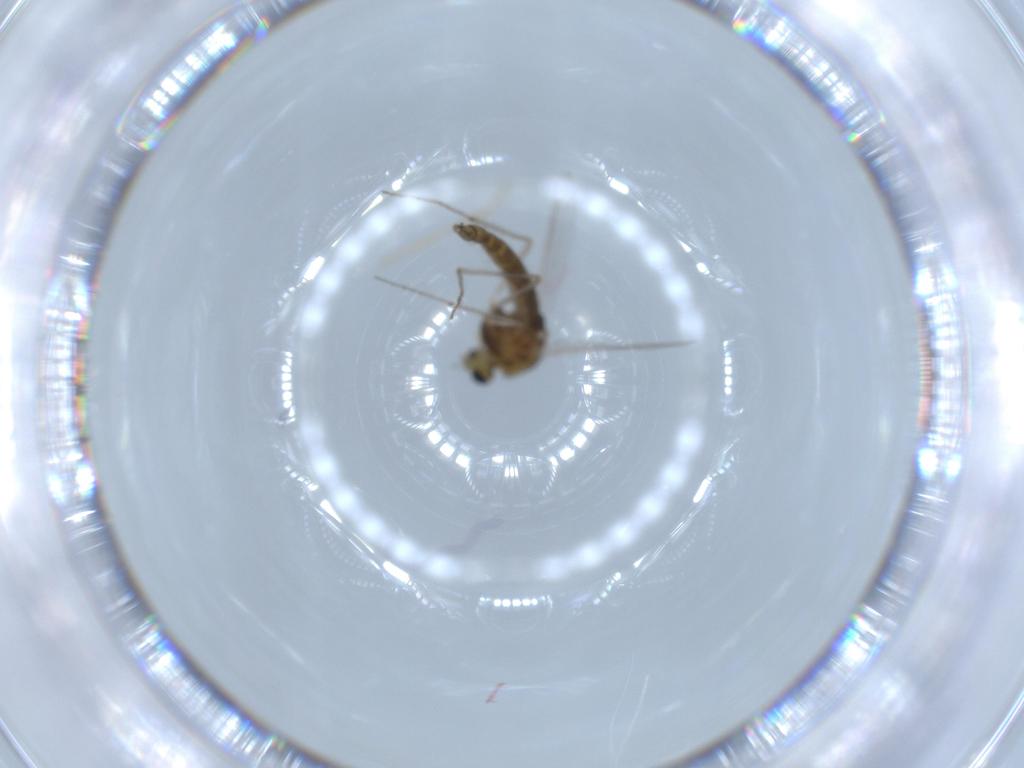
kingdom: Animalia
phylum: Arthropoda
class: Insecta
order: Diptera
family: Chironomidae
